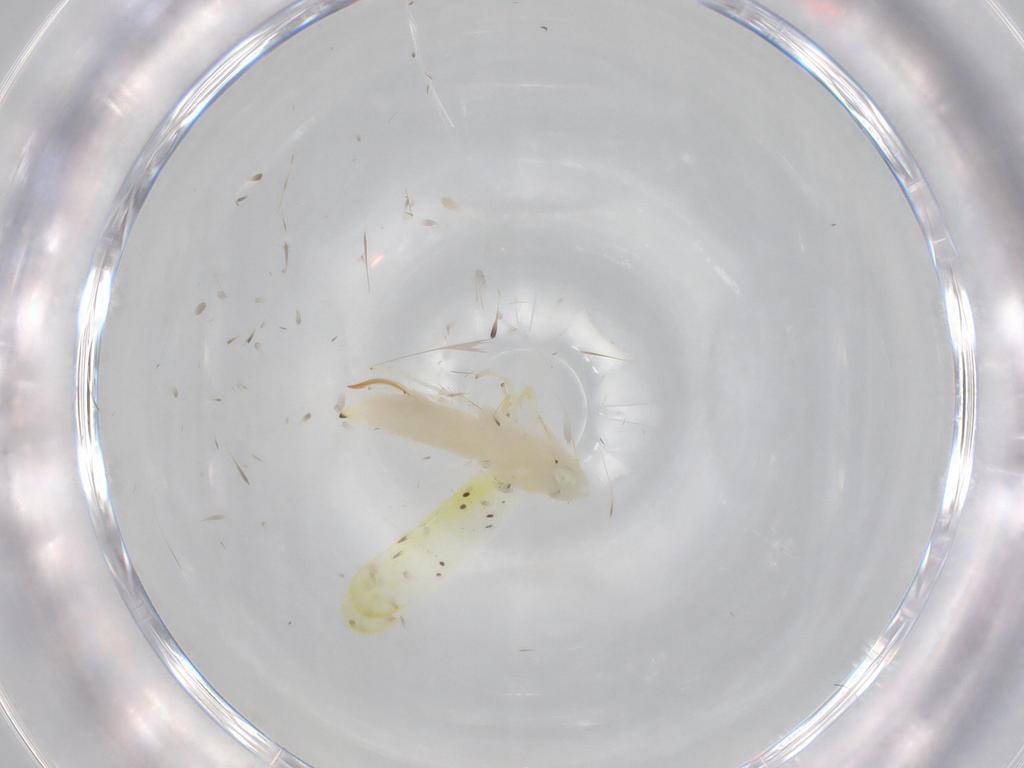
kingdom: Animalia
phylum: Arthropoda
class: Insecta
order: Hemiptera
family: Cicadellidae
